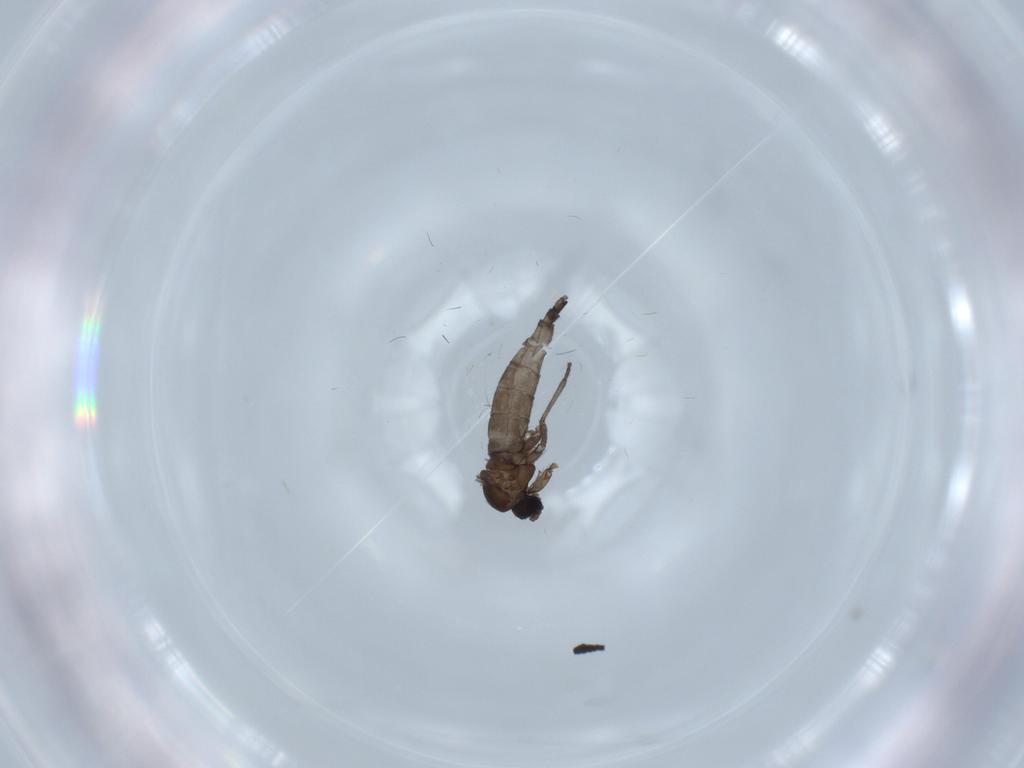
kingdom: Animalia
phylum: Arthropoda
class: Insecta
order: Diptera
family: Sciaridae
